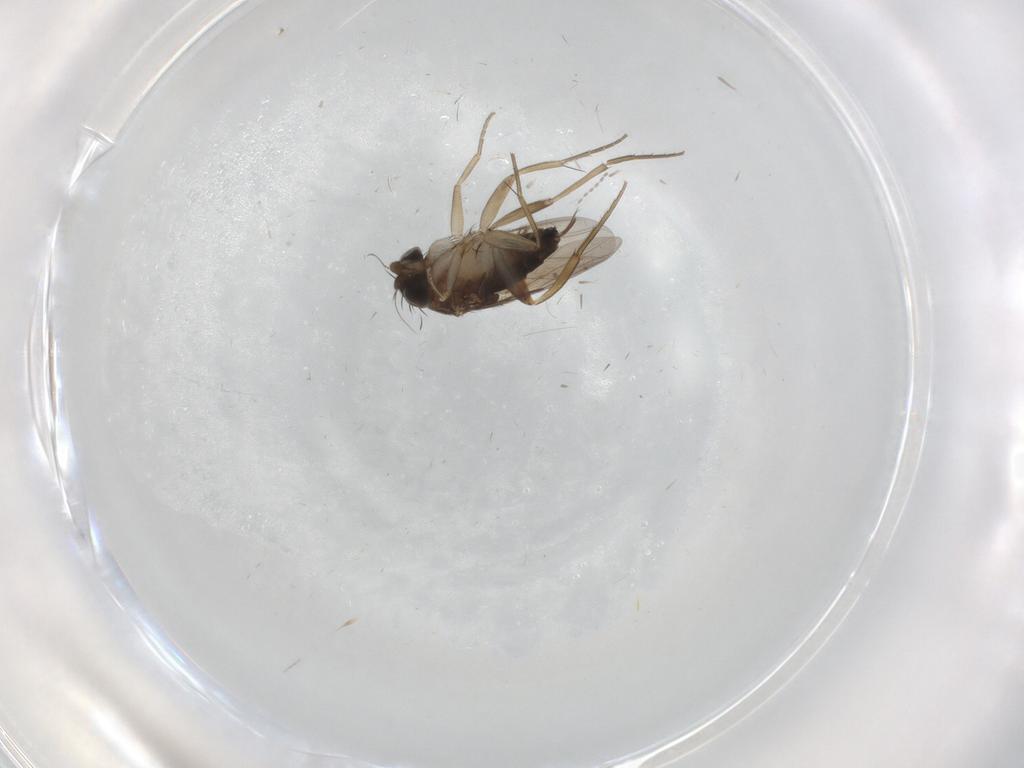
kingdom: Animalia
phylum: Arthropoda
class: Insecta
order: Diptera
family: Phoridae
